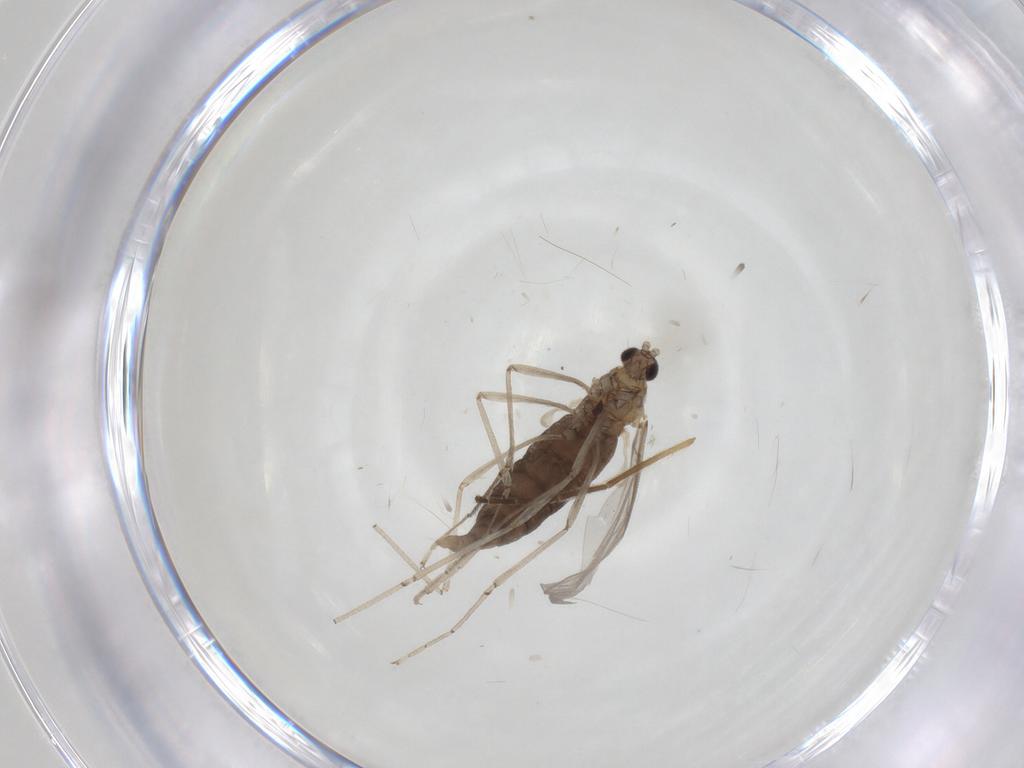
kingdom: Animalia
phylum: Arthropoda
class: Insecta
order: Diptera
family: Cecidomyiidae
